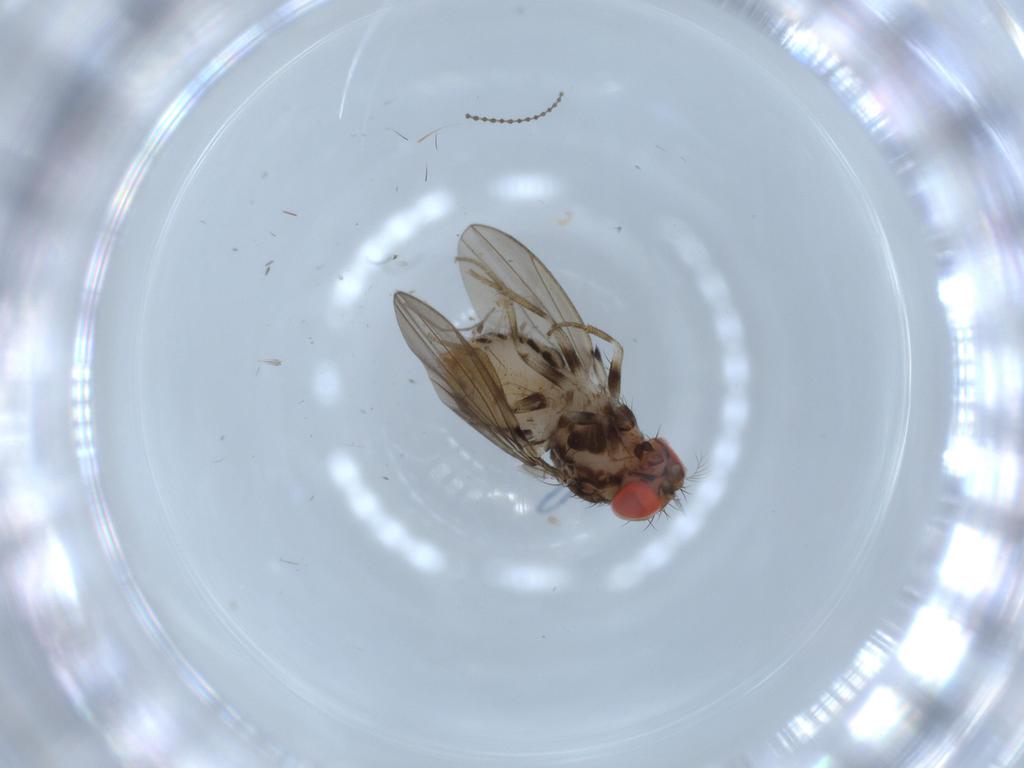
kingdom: Animalia
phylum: Arthropoda
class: Insecta
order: Diptera
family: Drosophilidae
